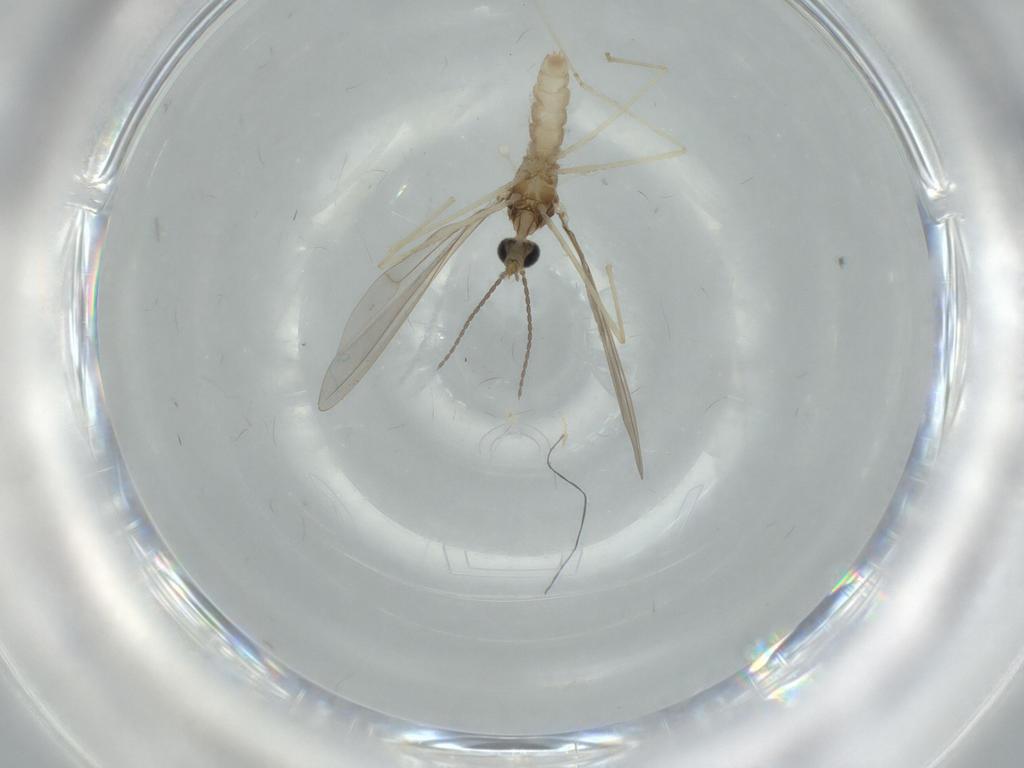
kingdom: Animalia
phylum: Arthropoda
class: Insecta
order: Diptera
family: Cecidomyiidae
